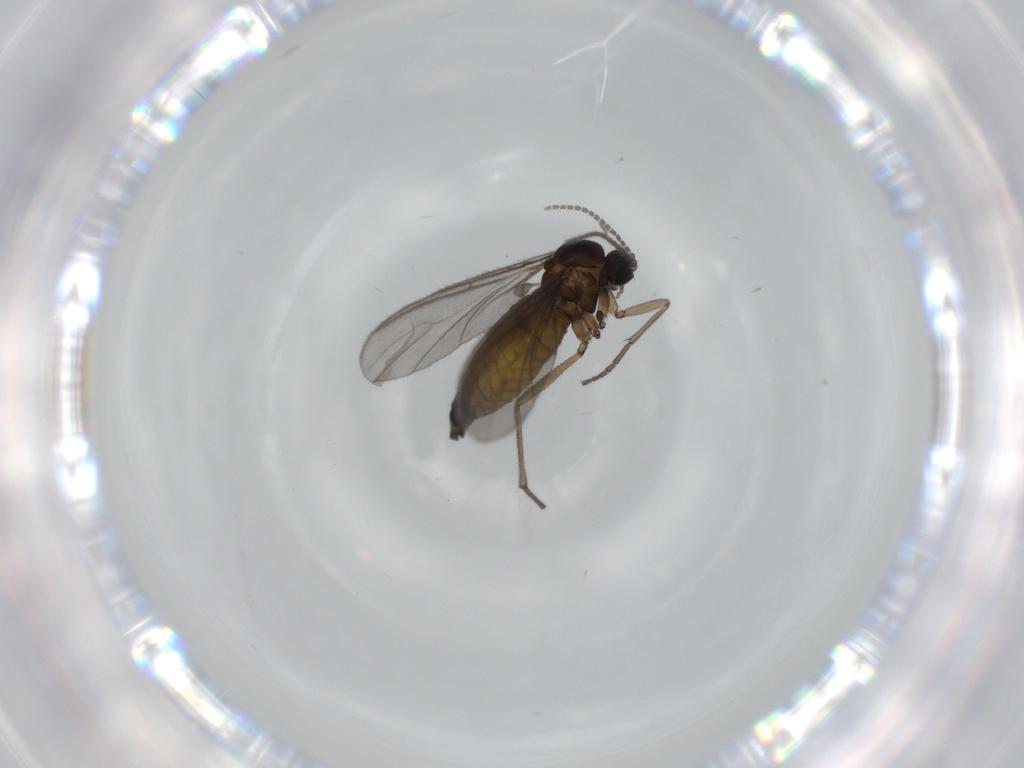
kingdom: Animalia
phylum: Arthropoda
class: Insecta
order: Diptera
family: Sciaridae
